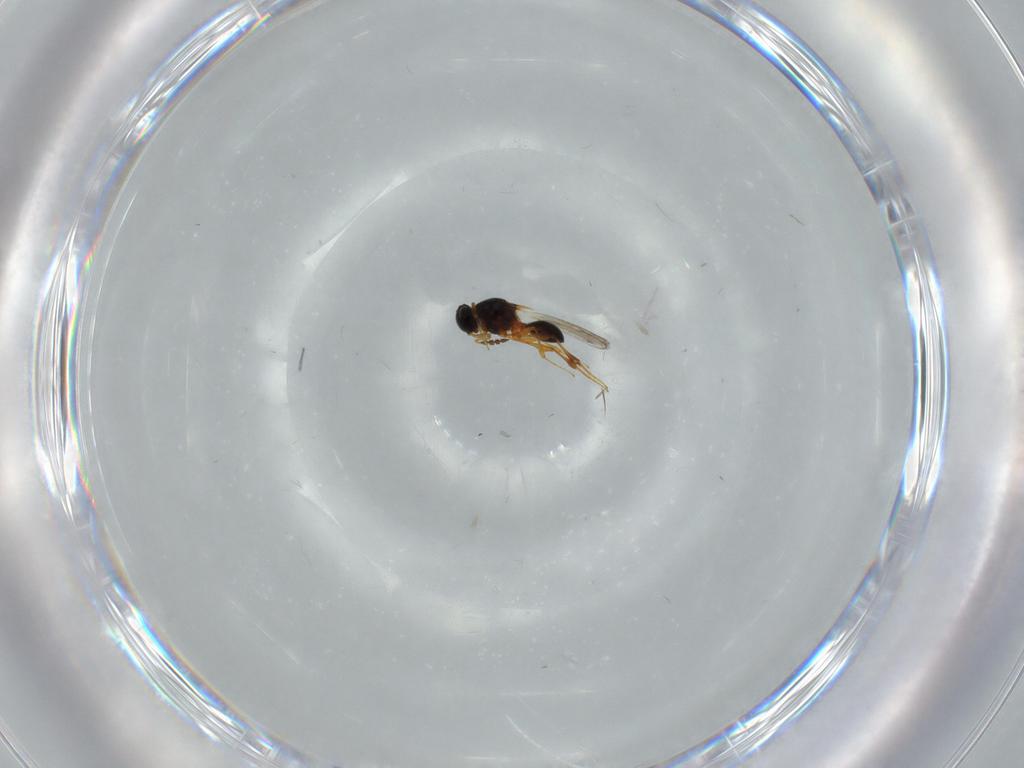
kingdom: Animalia
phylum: Arthropoda
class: Insecta
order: Hymenoptera
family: Platygastridae
